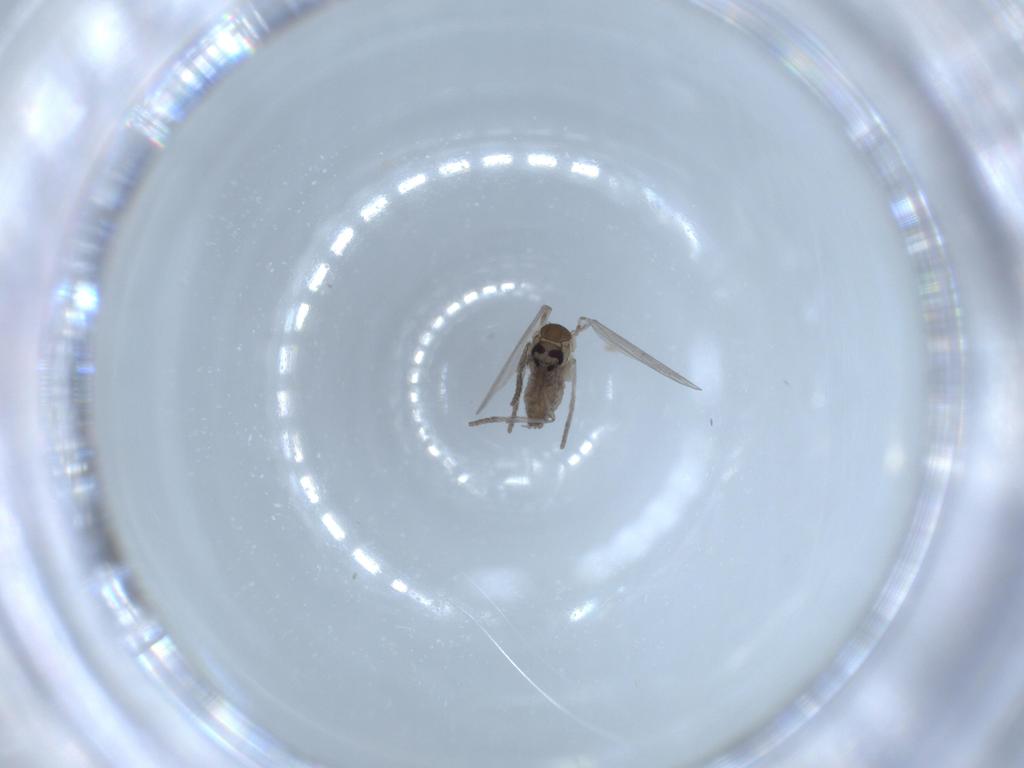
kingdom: Animalia
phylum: Arthropoda
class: Insecta
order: Diptera
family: Psychodidae
